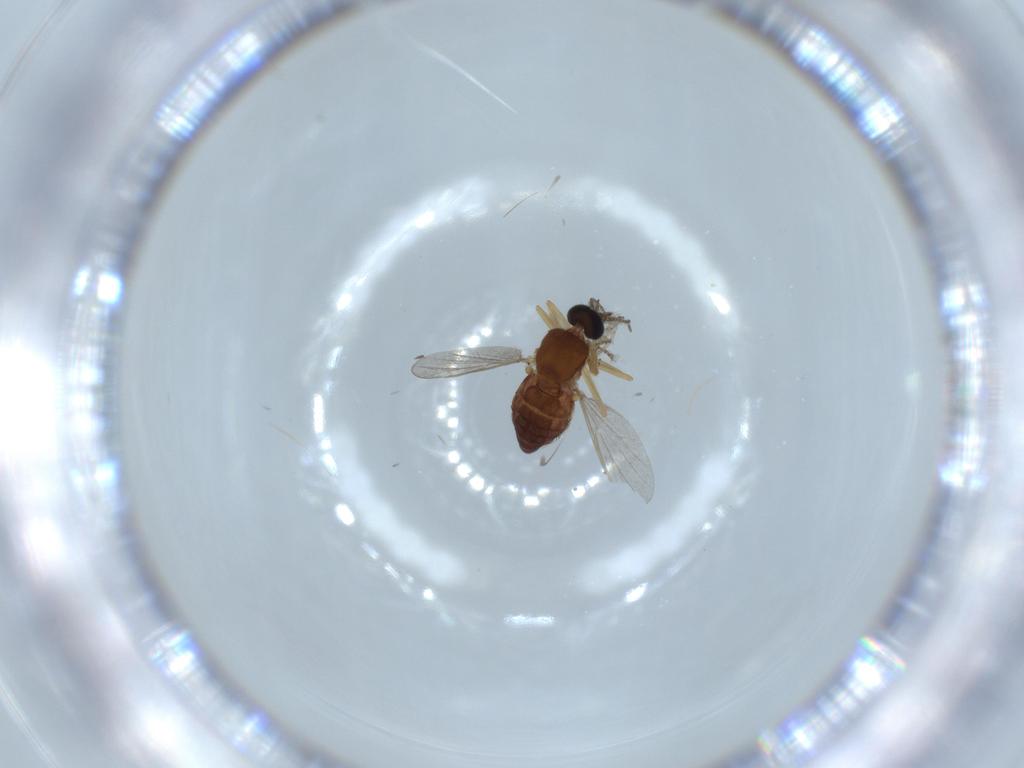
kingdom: Animalia
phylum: Arthropoda
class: Insecta
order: Diptera
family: Ceratopogonidae
